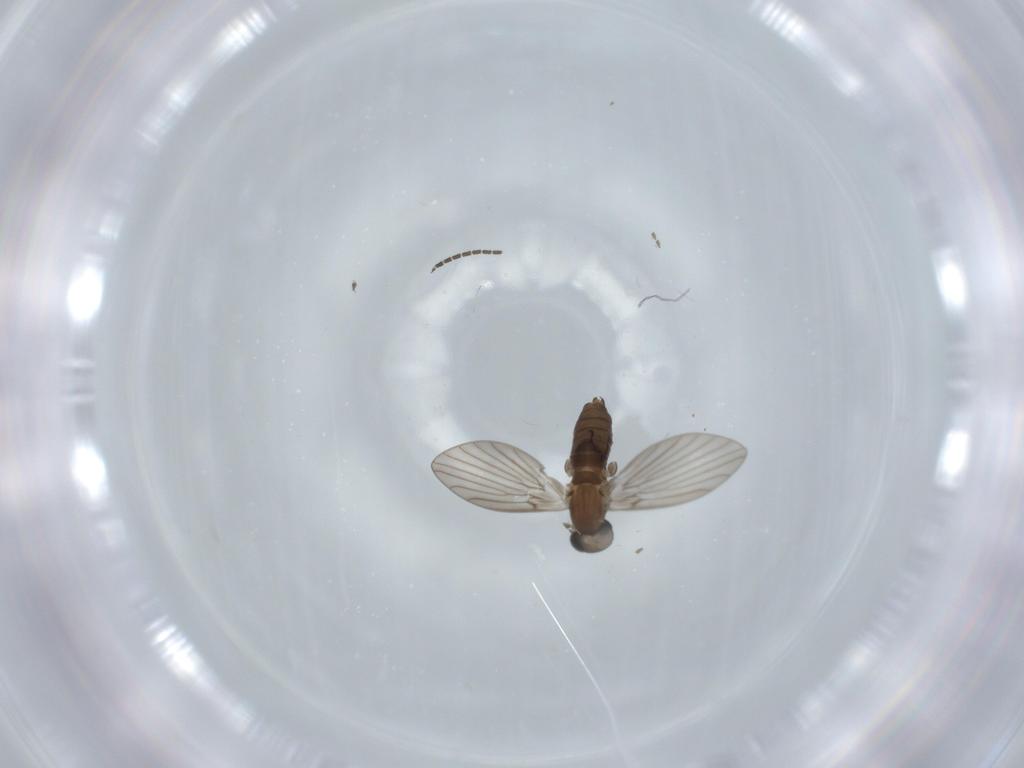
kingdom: Animalia
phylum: Arthropoda
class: Insecta
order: Diptera
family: Psychodidae
